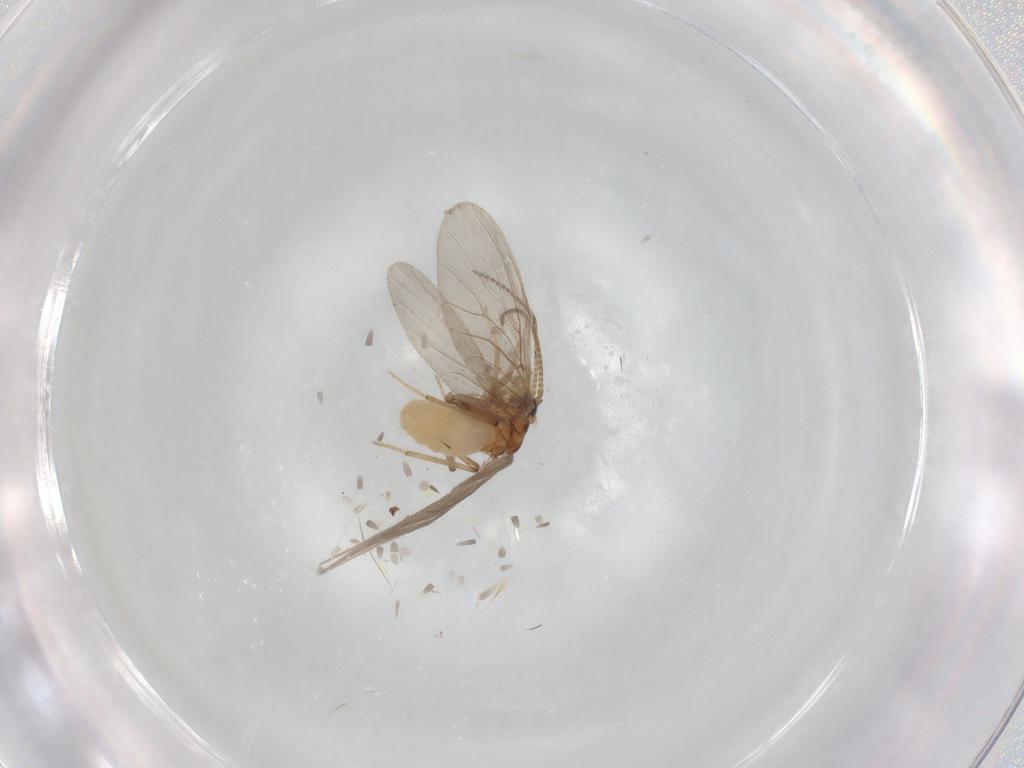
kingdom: Animalia
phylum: Arthropoda
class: Insecta
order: Neuroptera
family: Coniopterygidae
